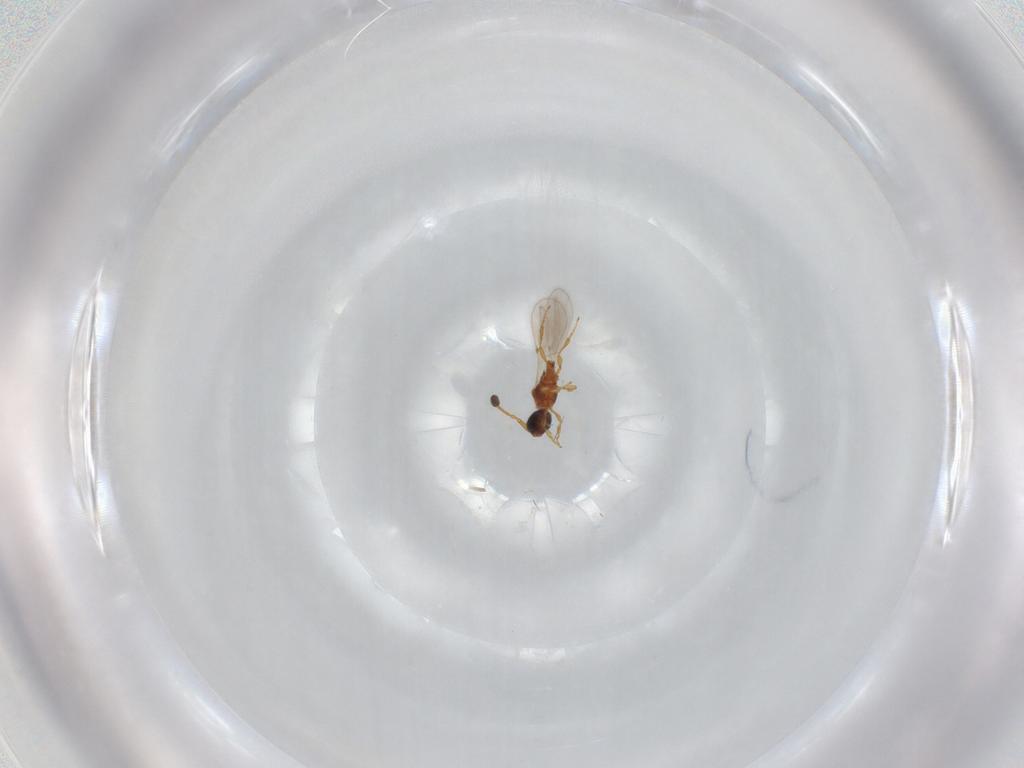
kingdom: Animalia
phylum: Arthropoda
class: Insecta
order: Hymenoptera
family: Diapriidae
